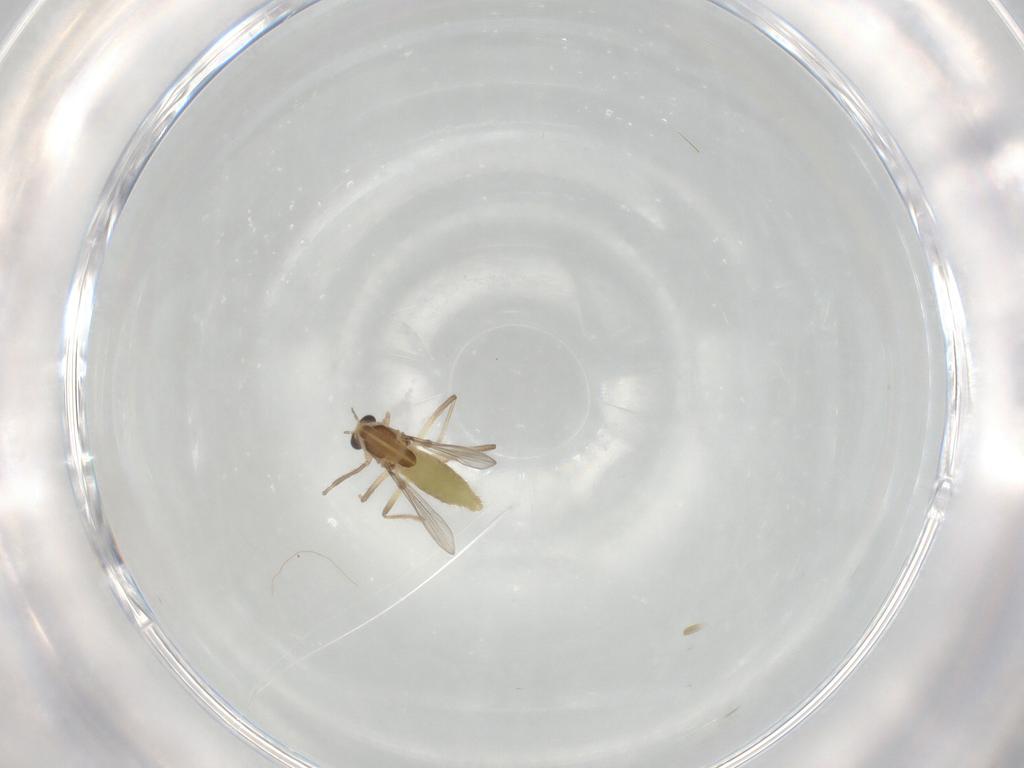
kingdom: Animalia
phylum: Arthropoda
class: Insecta
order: Diptera
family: Chironomidae
